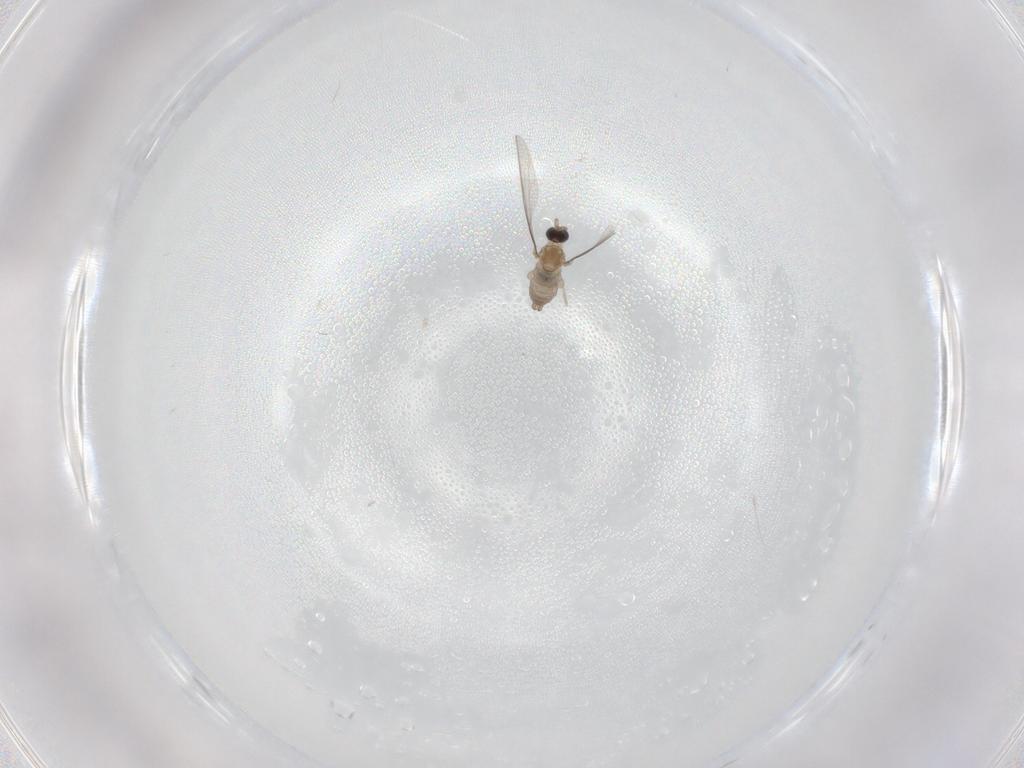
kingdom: Animalia
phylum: Arthropoda
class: Insecta
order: Diptera
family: Cecidomyiidae
